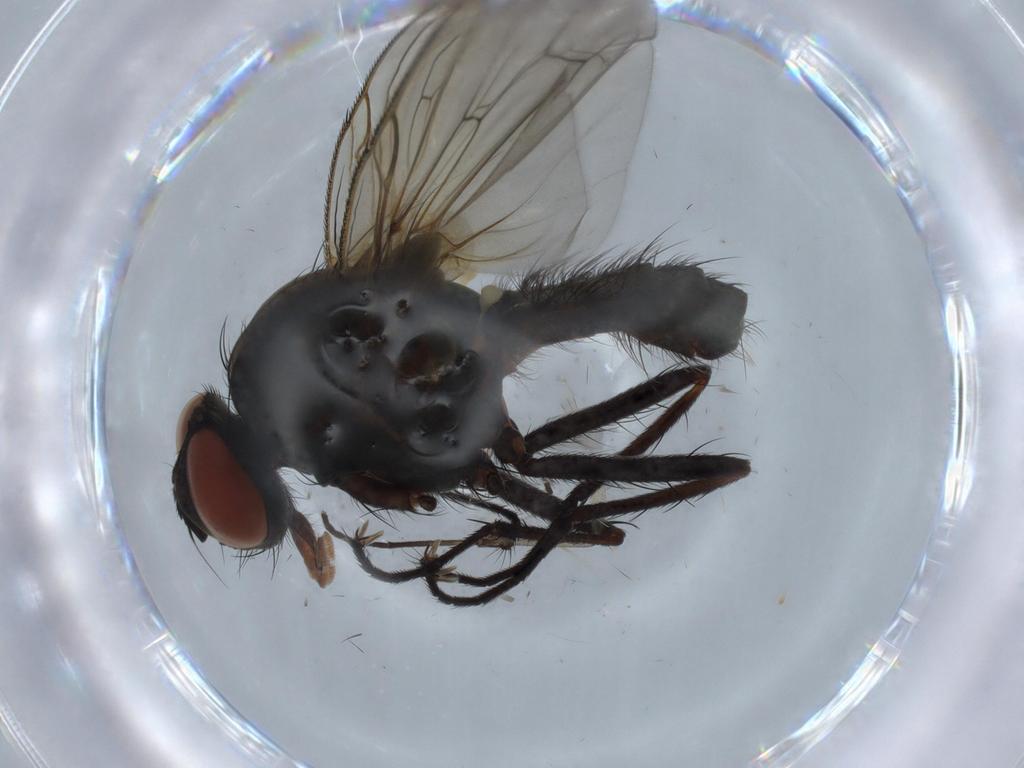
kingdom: Animalia
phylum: Arthropoda
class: Insecta
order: Diptera
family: Anthomyiidae
